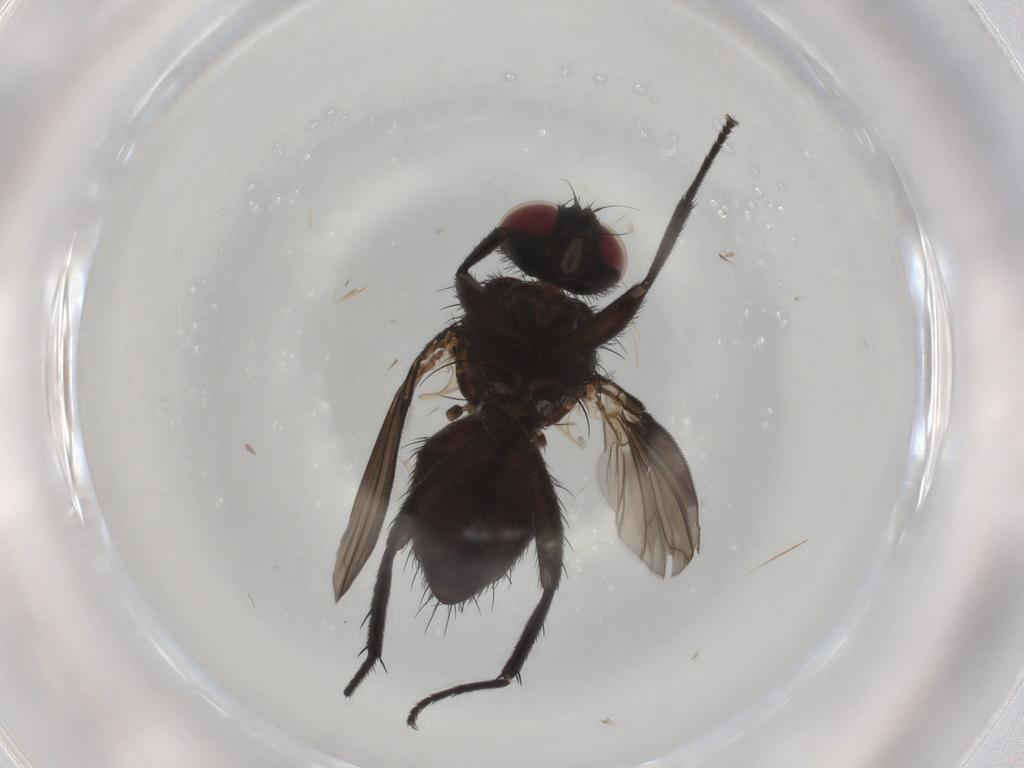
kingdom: Animalia
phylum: Arthropoda
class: Insecta
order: Diptera
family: Calliphoridae
